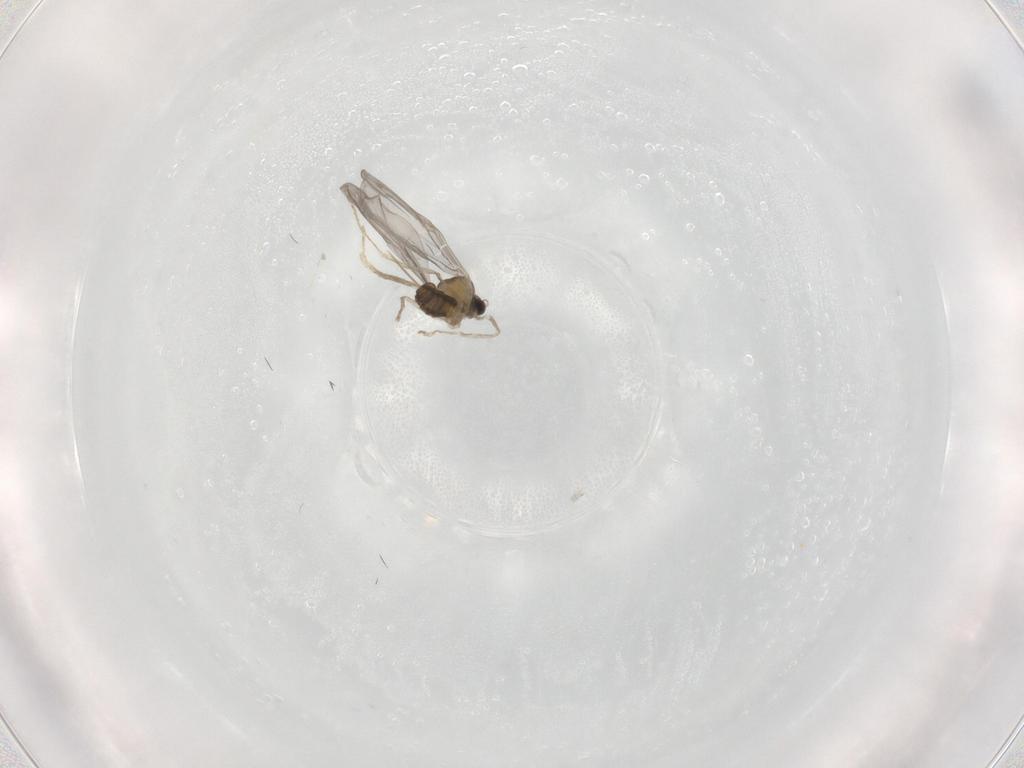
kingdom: Animalia
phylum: Arthropoda
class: Insecta
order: Diptera
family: Cecidomyiidae
